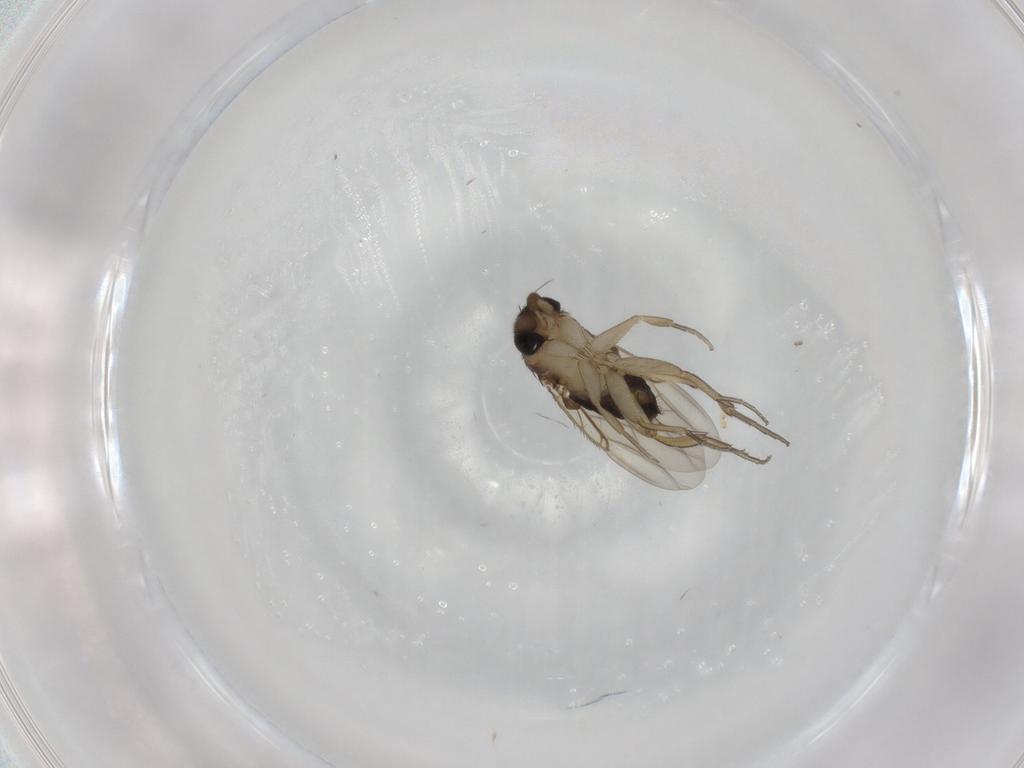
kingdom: Animalia
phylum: Arthropoda
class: Insecta
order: Diptera
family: Phoridae
